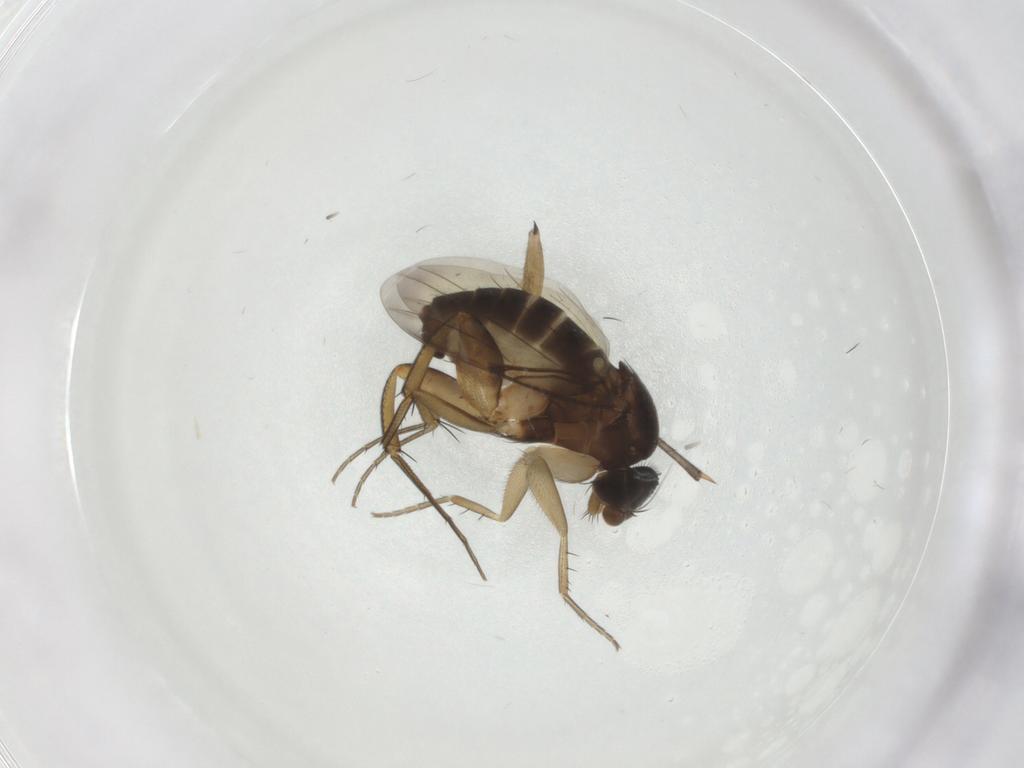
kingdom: Animalia
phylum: Arthropoda
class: Insecta
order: Diptera
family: Phoridae
